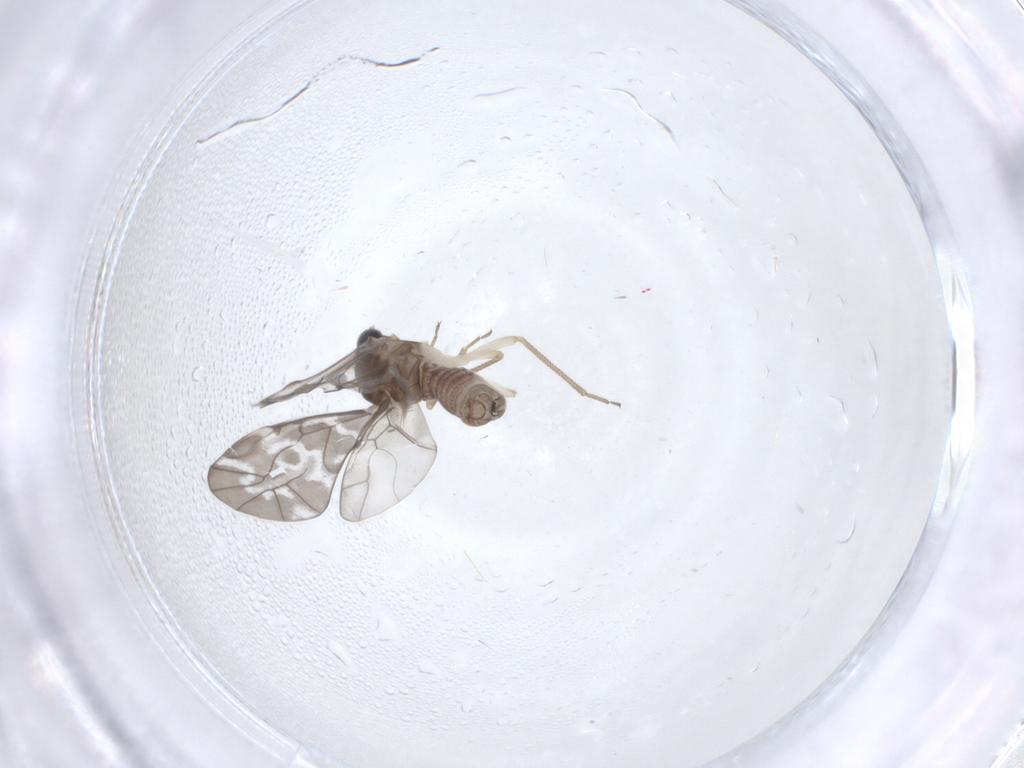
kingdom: Animalia
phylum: Arthropoda
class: Insecta
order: Psocodea
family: Peripsocidae
